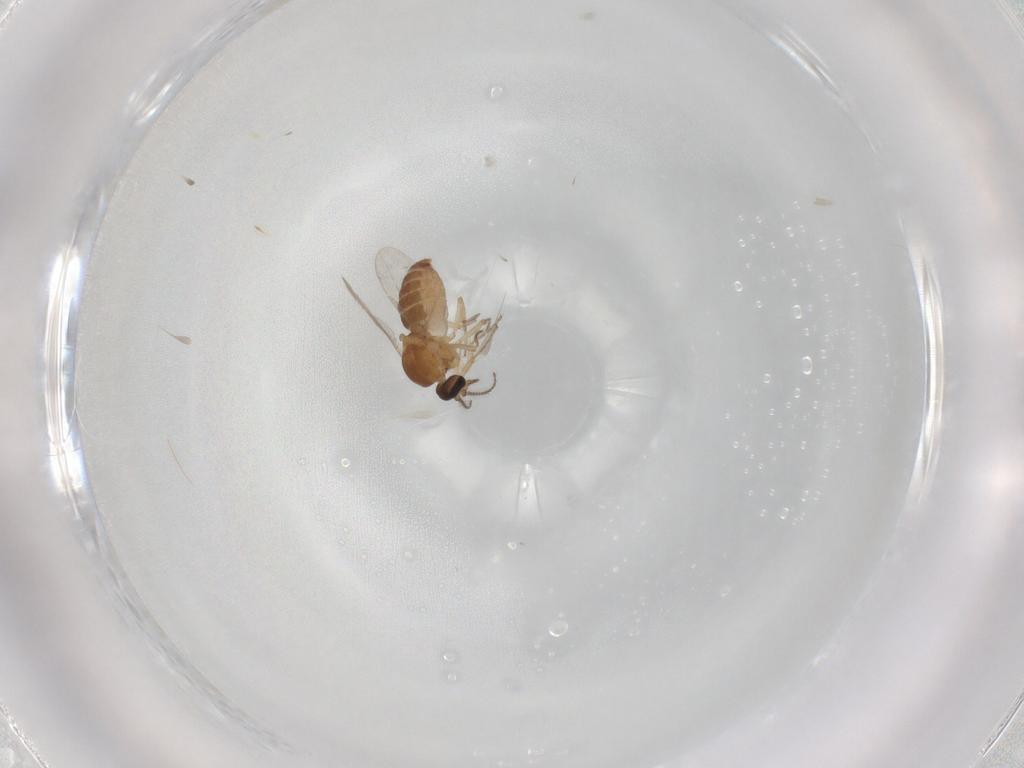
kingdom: Animalia
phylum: Arthropoda
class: Insecta
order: Diptera
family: Ceratopogonidae
